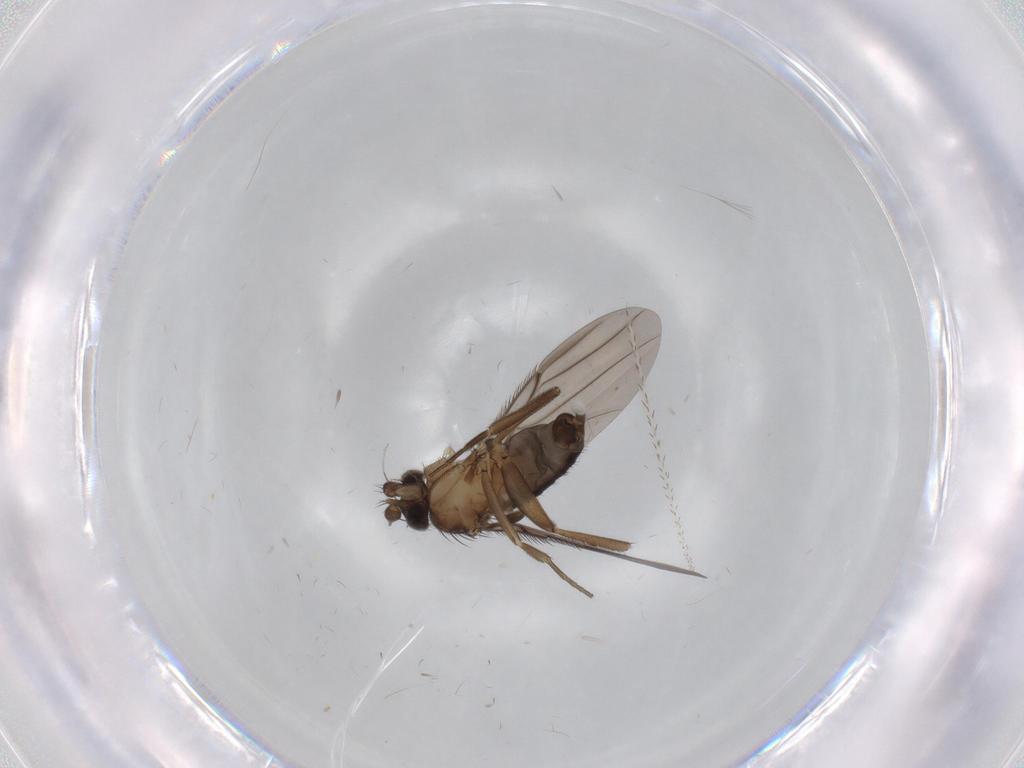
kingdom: Animalia
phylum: Arthropoda
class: Insecta
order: Diptera
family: Phoridae
